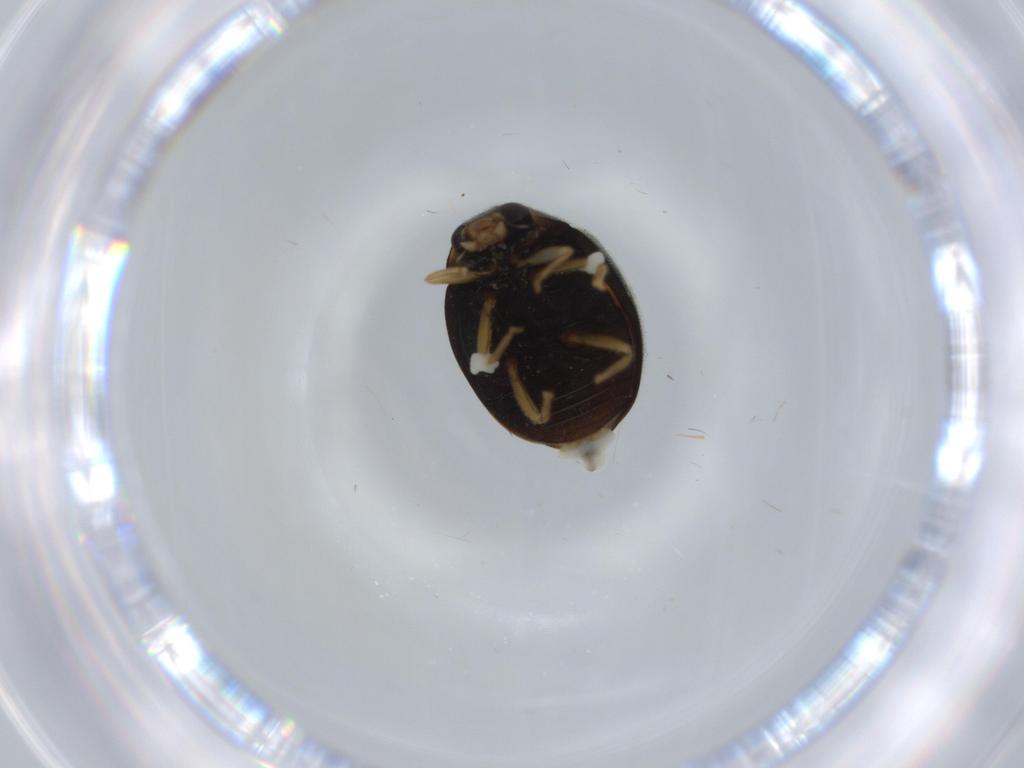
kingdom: Animalia
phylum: Arthropoda
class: Insecta
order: Coleoptera
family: Coccinellidae
